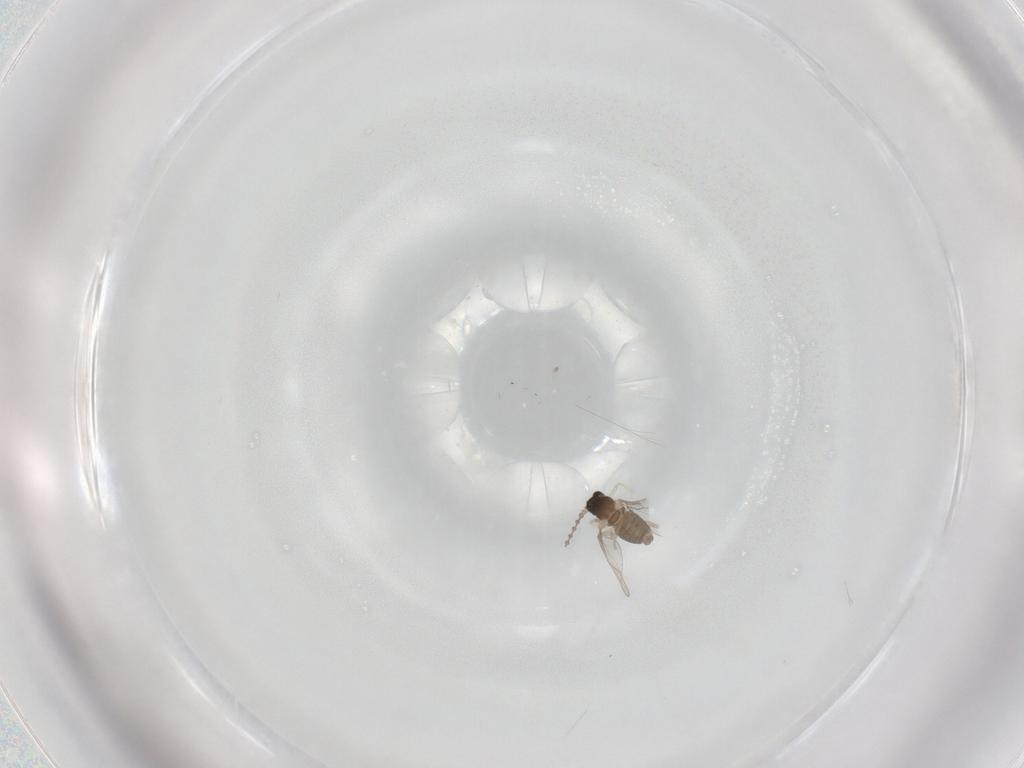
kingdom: Animalia
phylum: Arthropoda
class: Insecta
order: Diptera
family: Cecidomyiidae
